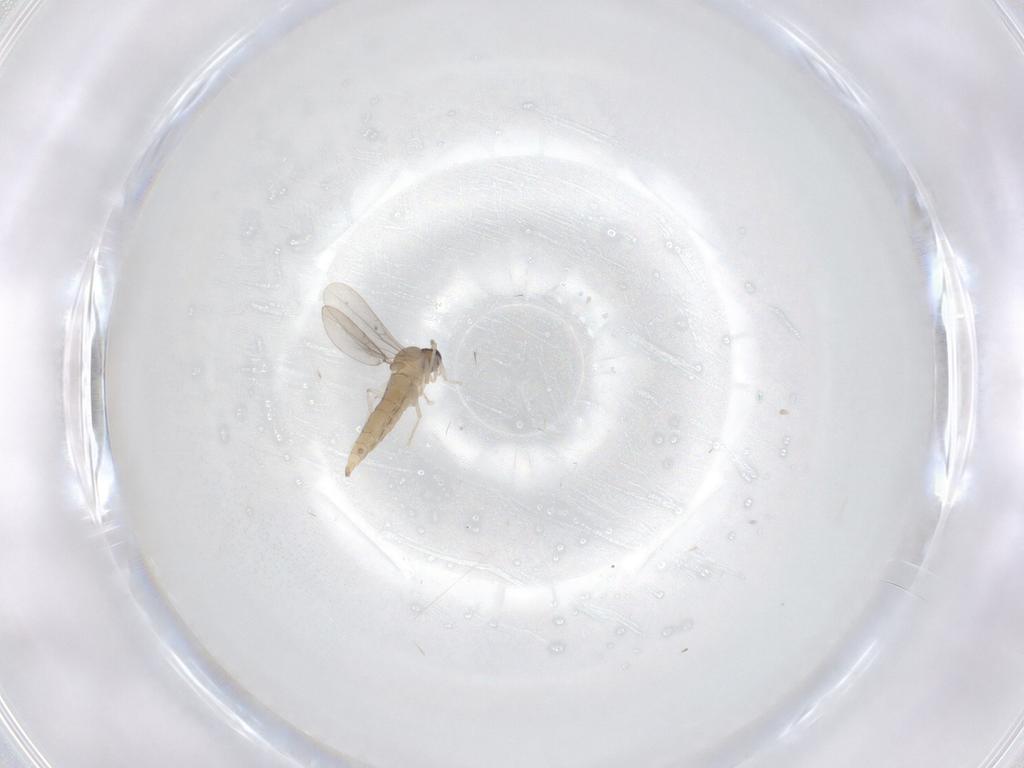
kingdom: Animalia
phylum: Arthropoda
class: Insecta
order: Diptera
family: Cecidomyiidae
